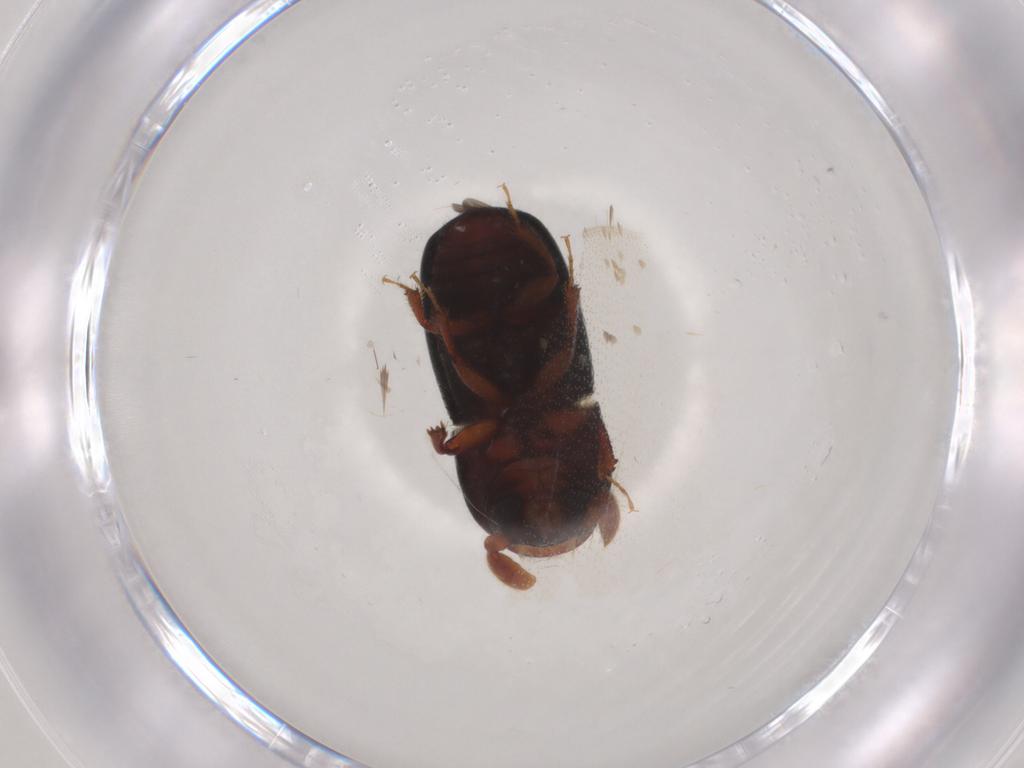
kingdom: Animalia
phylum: Arthropoda
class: Insecta
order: Coleoptera
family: Curculionidae
